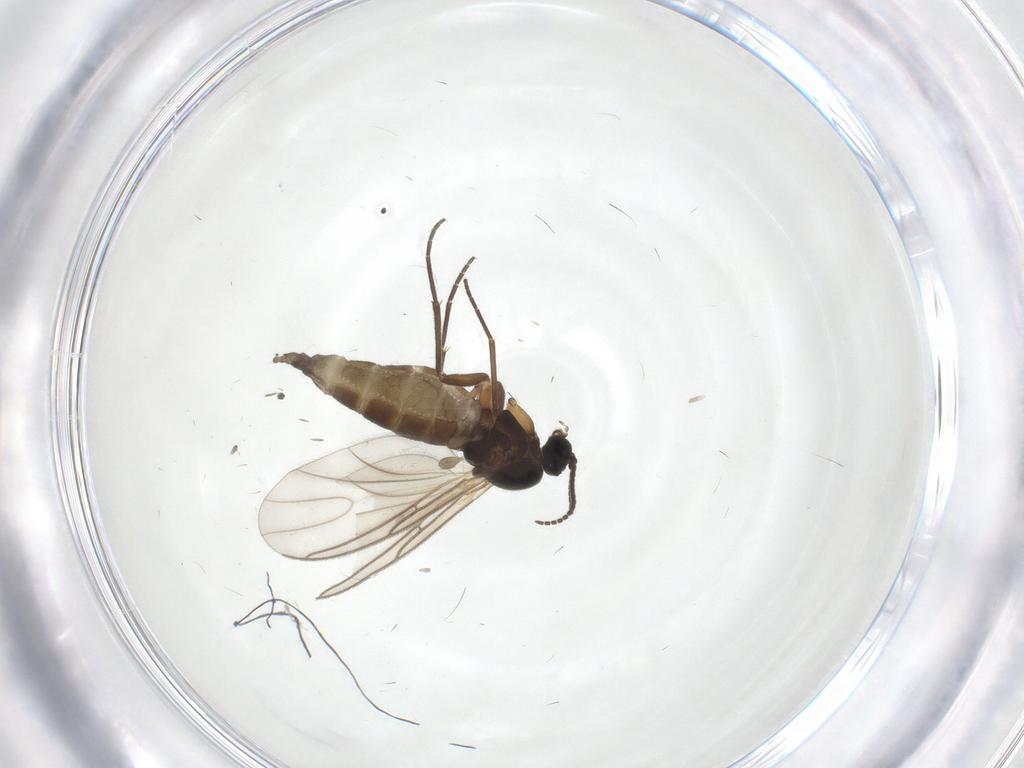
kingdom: Animalia
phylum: Arthropoda
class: Insecta
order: Diptera
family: Sciaridae
